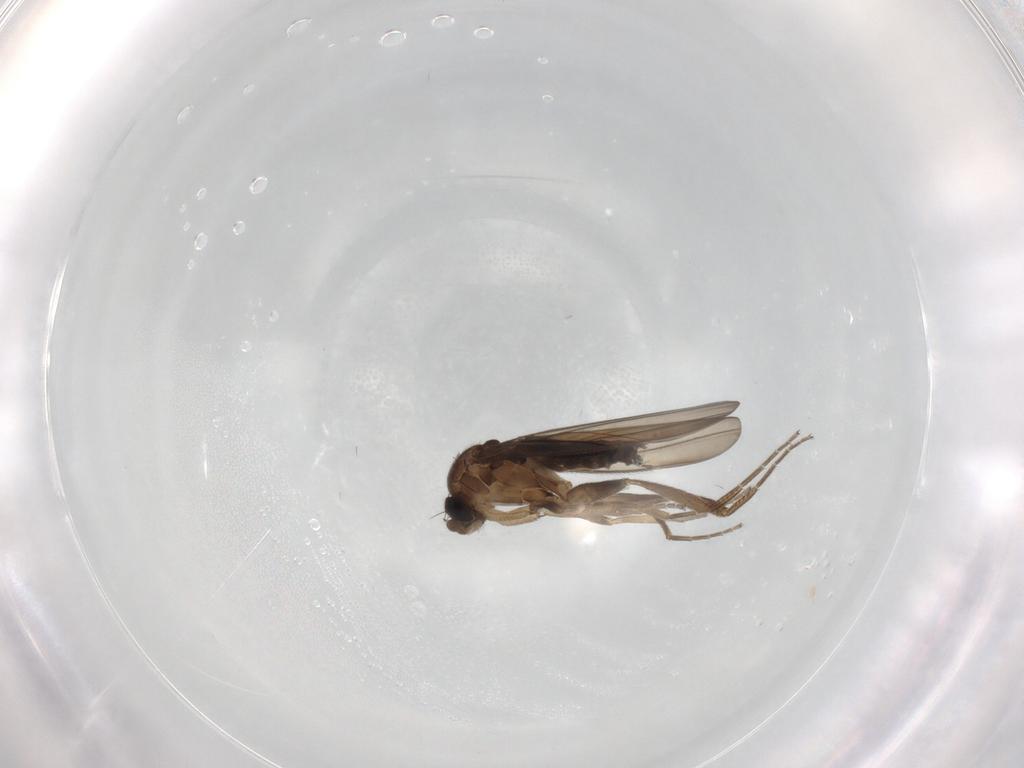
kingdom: Animalia
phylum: Arthropoda
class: Insecta
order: Diptera
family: Phoridae
